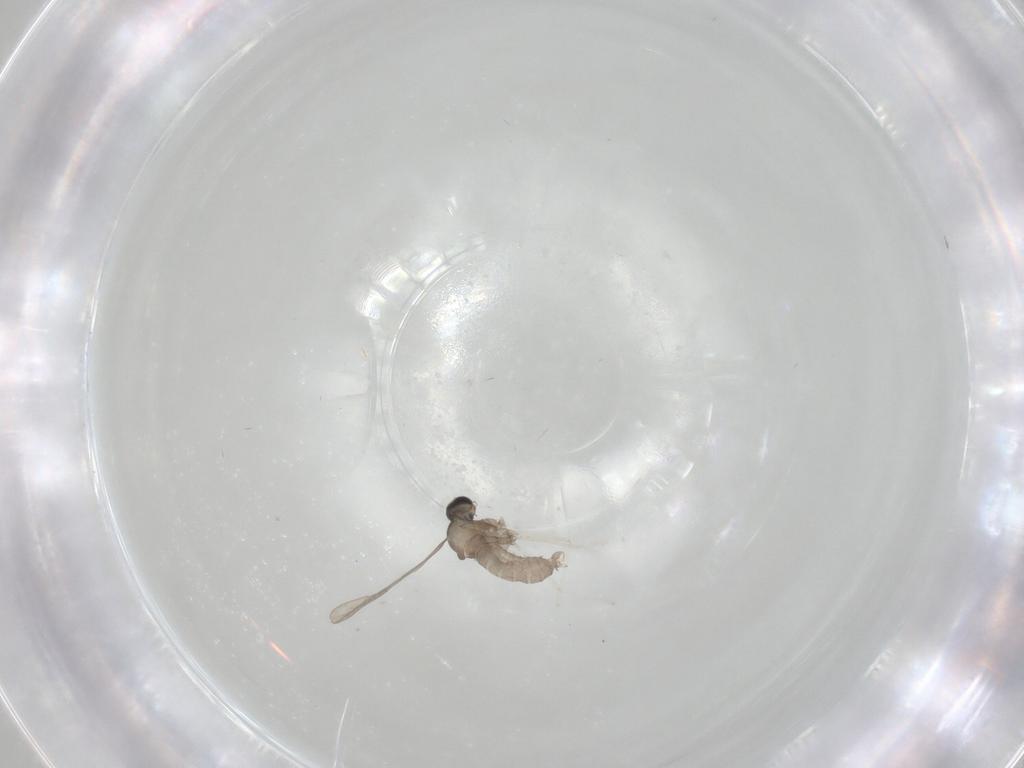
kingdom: Animalia
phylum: Arthropoda
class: Insecta
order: Diptera
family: Cecidomyiidae
